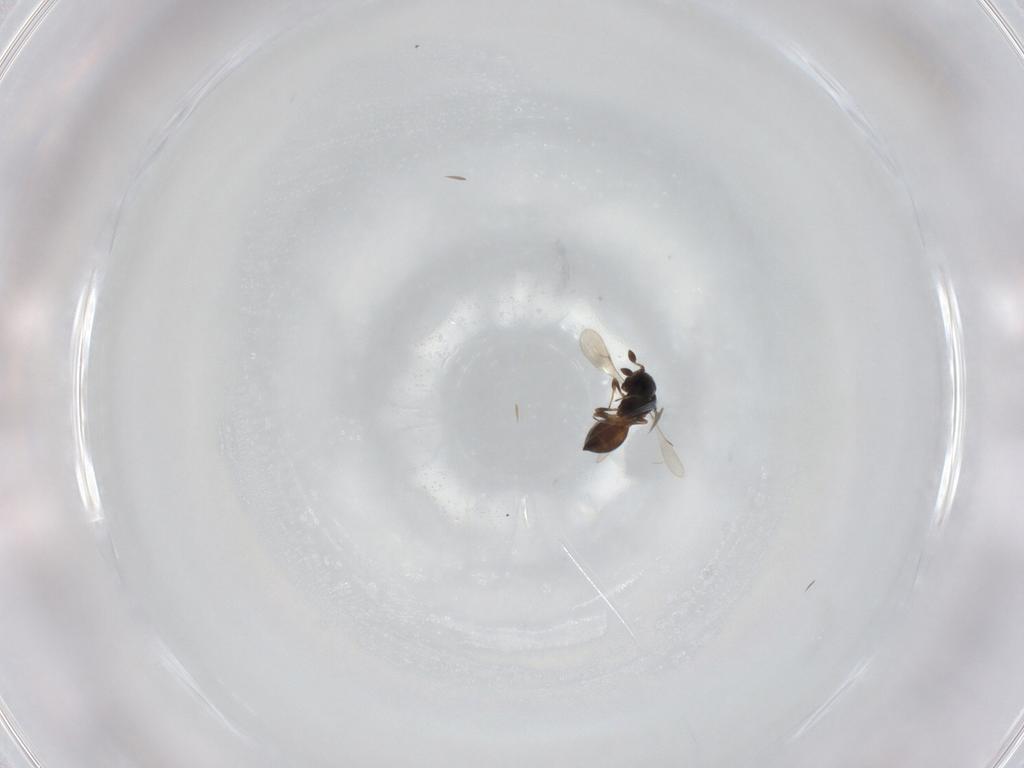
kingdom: Animalia
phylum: Arthropoda
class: Insecta
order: Hymenoptera
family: Scelionidae
